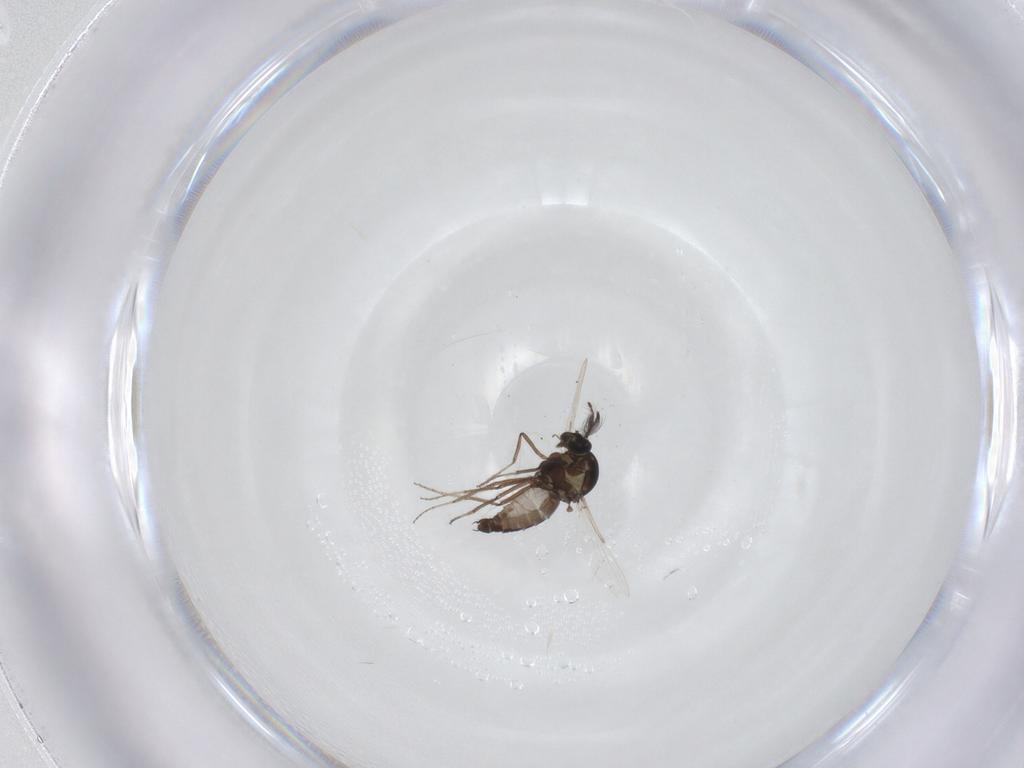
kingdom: Animalia
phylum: Arthropoda
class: Insecta
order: Diptera
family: Ceratopogonidae
